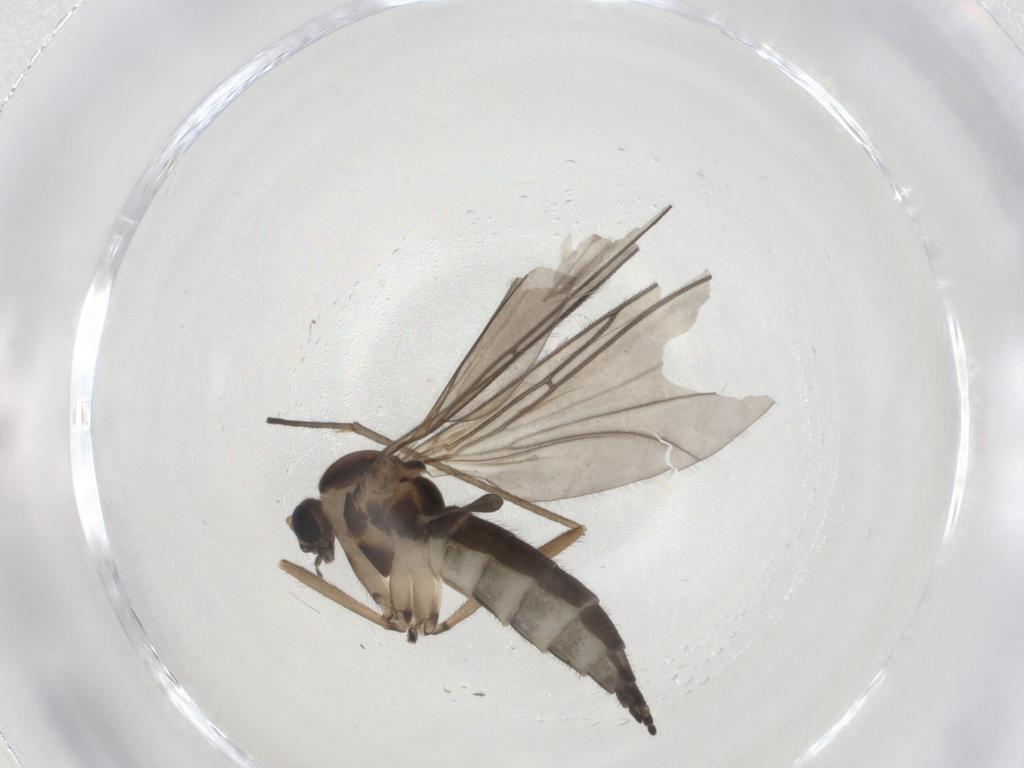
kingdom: Animalia
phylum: Arthropoda
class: Insecta
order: Diptera
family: Sciaridae
